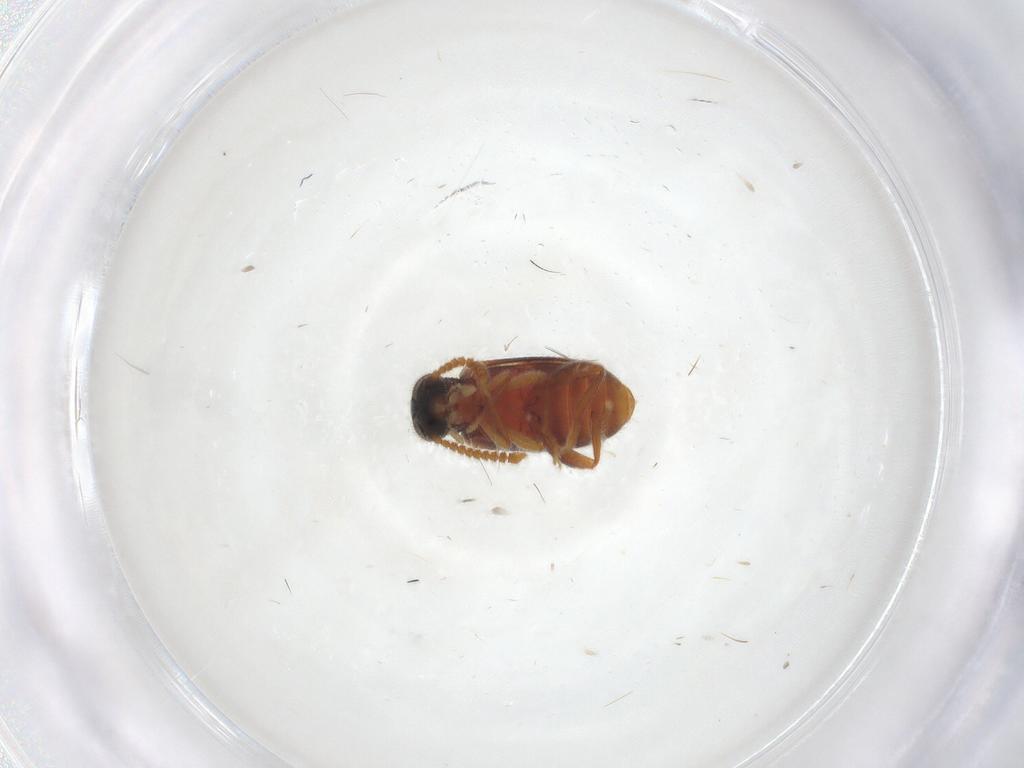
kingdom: Animalia
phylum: Arthropoda
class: Insecta
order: Coleoptera
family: Aderidae
